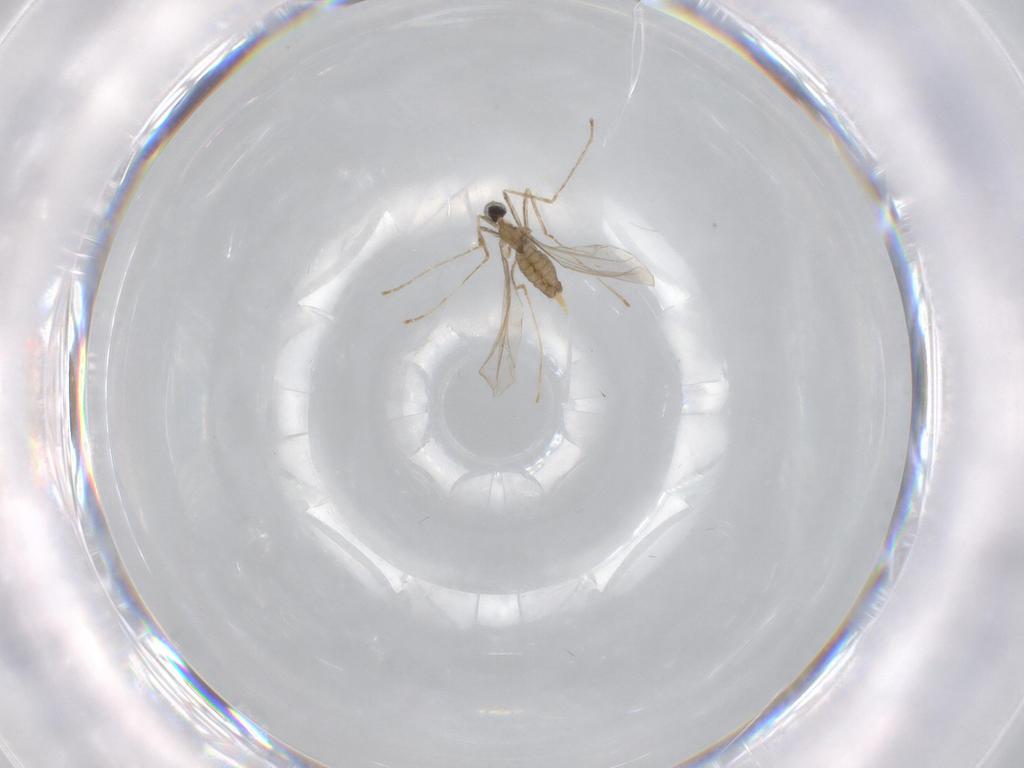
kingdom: Animalia
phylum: Arthropoda
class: Insecta
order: Diptera
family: Cecidomyiidae
